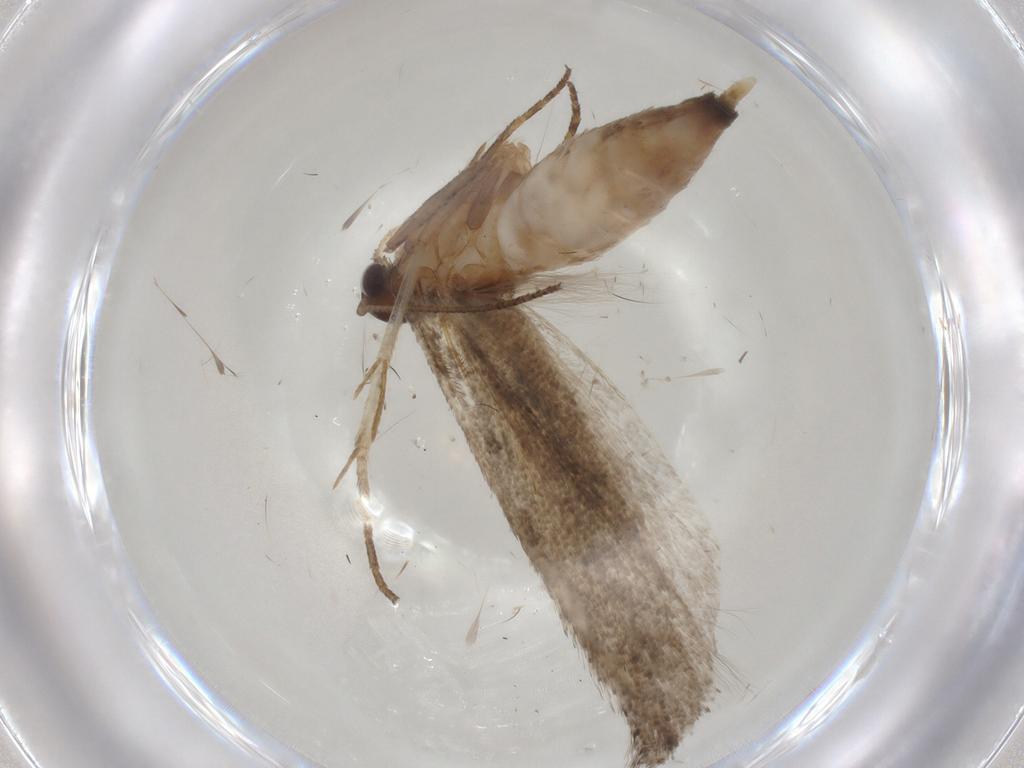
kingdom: Animalia
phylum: Arthropoda
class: Insecta
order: Lepidoptera
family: Gelechiidae
